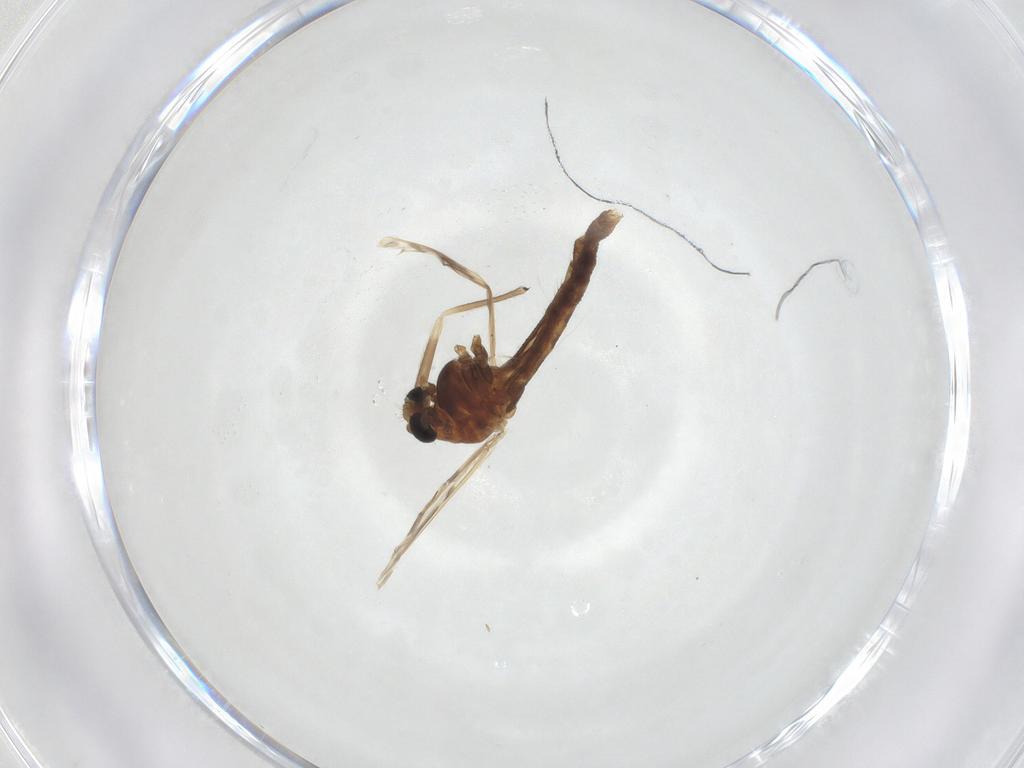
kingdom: Animalia
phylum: Arthropoda
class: Insecta
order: Diptera
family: Chironomidae
